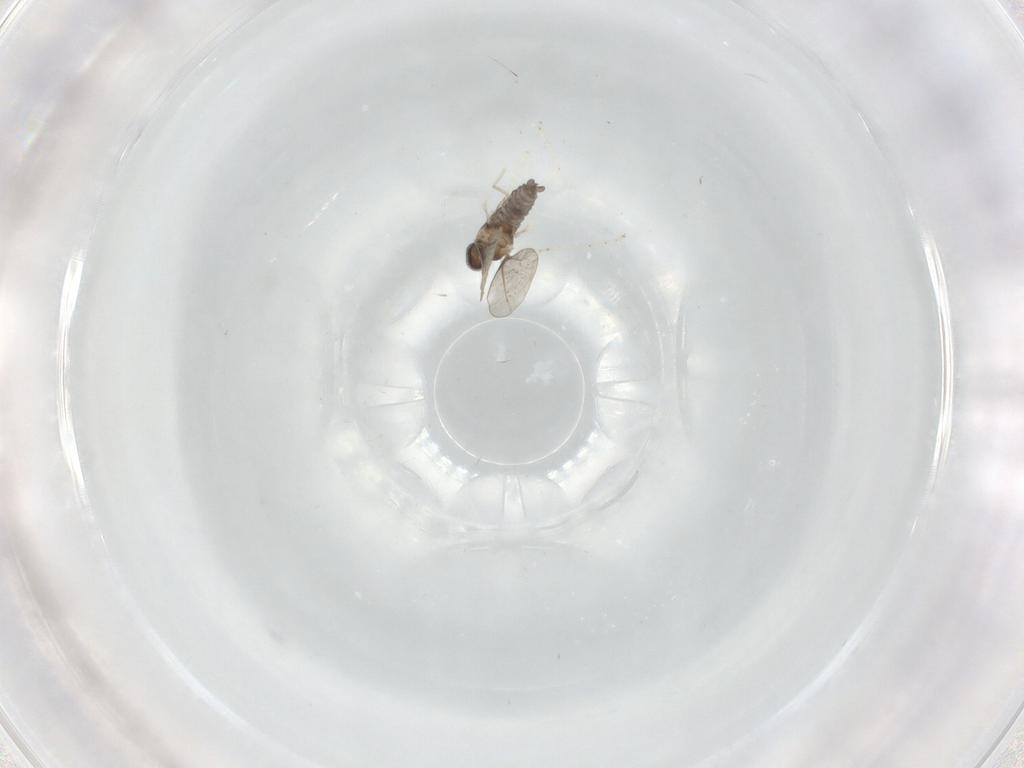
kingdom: Animalia
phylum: Arthropoda
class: Insecta
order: Diptera
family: Cecidomyiidae
